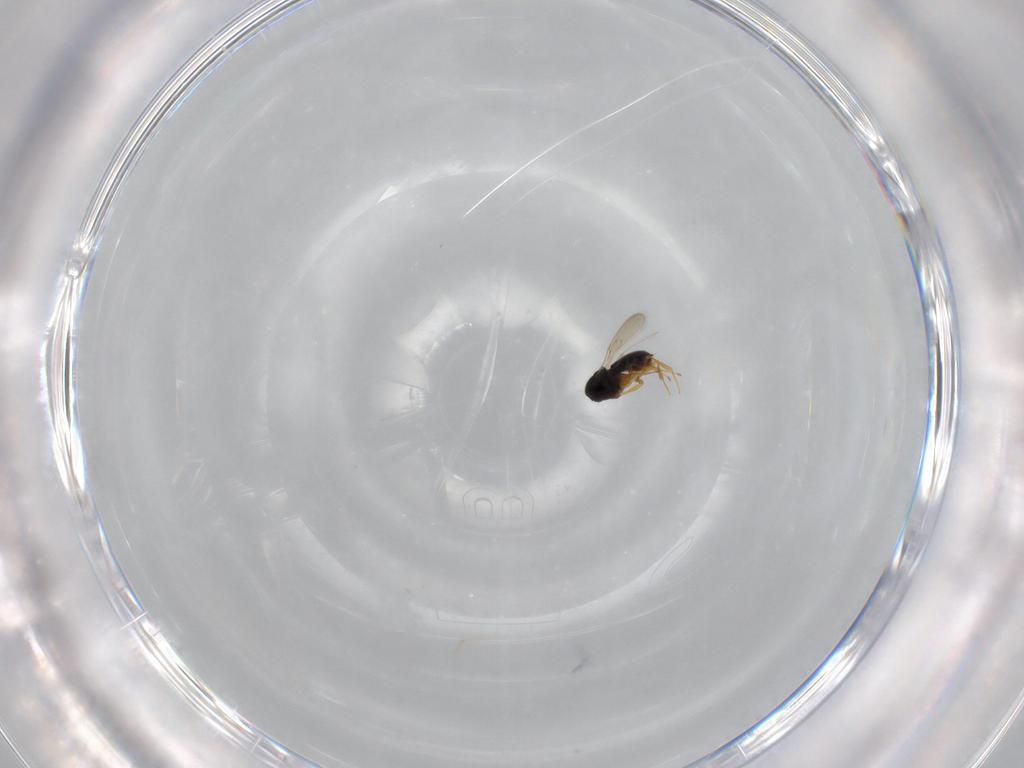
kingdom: Animalia
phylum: Arthropoda
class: Insecta
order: Hymenoptera
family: Scelionidae
